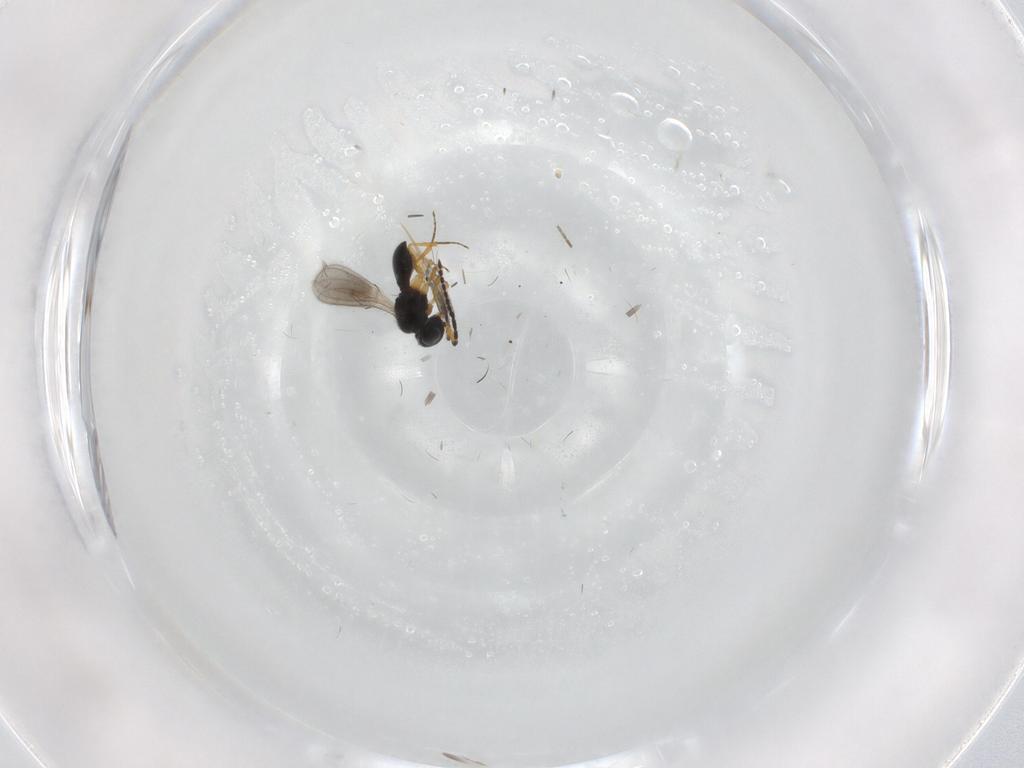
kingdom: Animalia
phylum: Arthropoda
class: Insecta
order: Hymenoptera
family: Scelionidae
